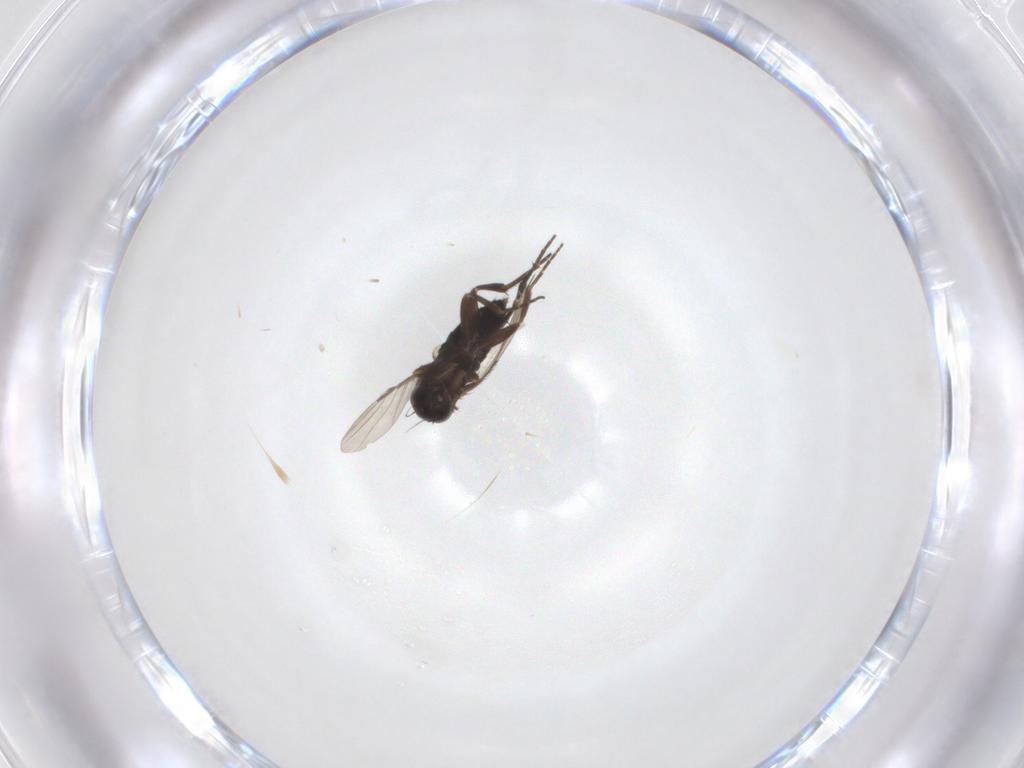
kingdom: Animalia
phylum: Arthropoda
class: Insecta
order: Diptera
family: Phoridae
